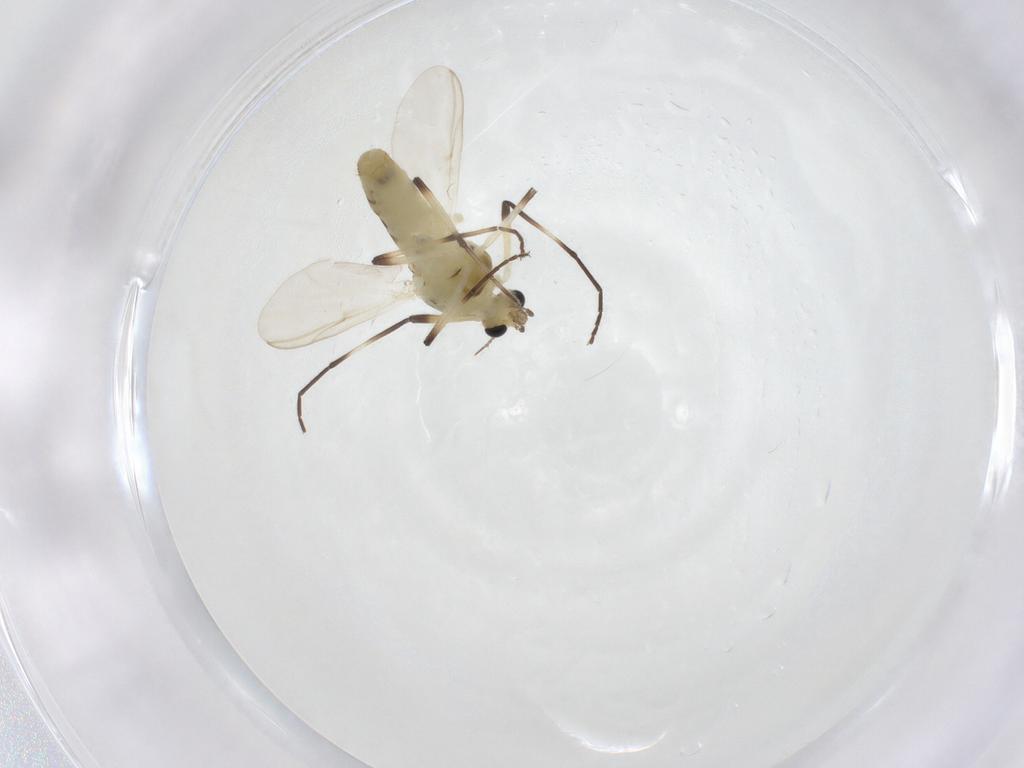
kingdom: Animalia
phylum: Arthropoda
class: Insecta
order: Diptera
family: Chironomidae
